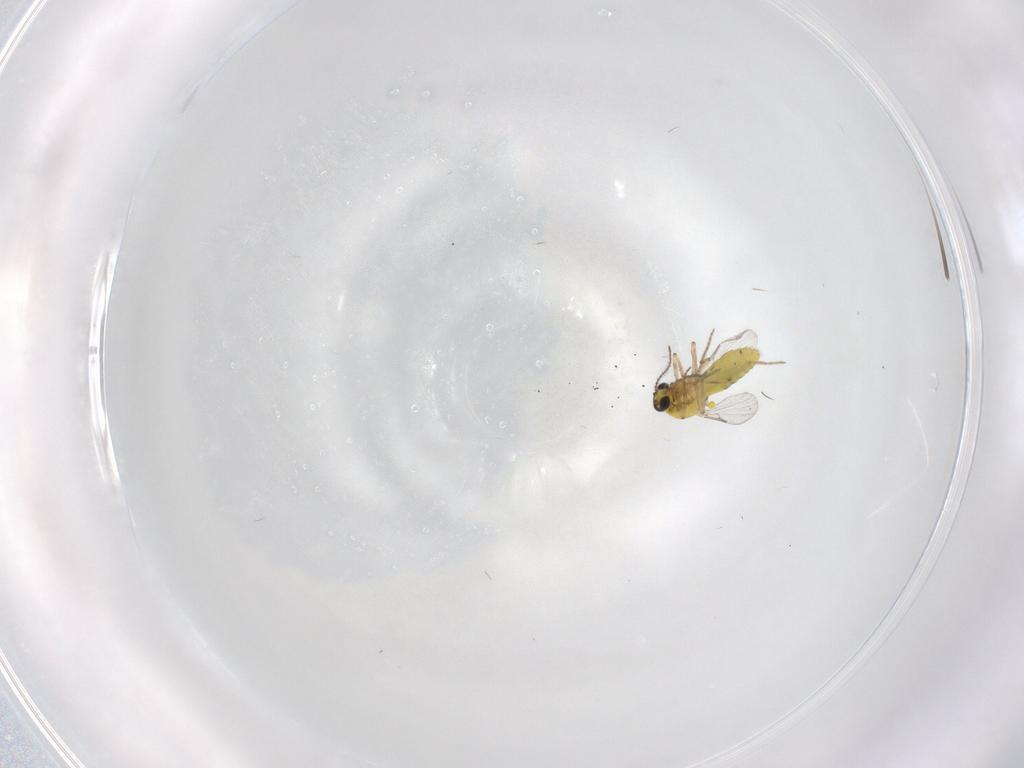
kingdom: Animalia
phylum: Arthropoda
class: Insecta
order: Diptera
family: Ceratopogonidae
